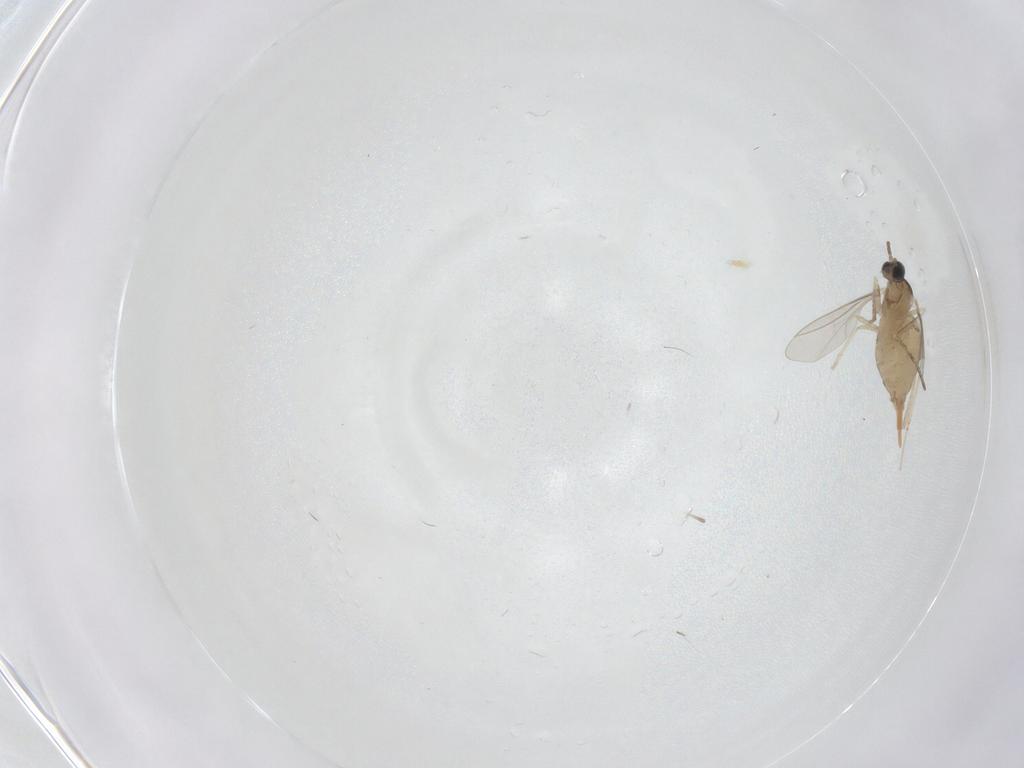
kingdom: Animalia
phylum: Arthropoda
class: Insecta
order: Diptera
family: Cecidomyiidae
